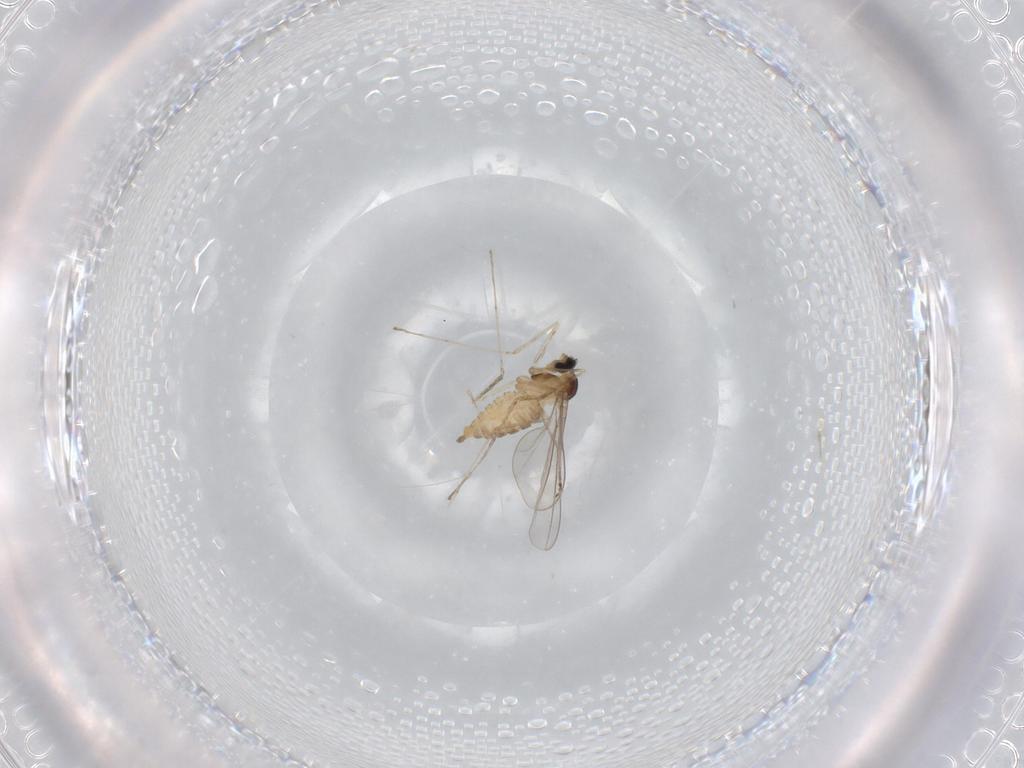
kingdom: Animalia
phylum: Arthropoda
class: Insecta
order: Diptera
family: Cecidomyiidae
